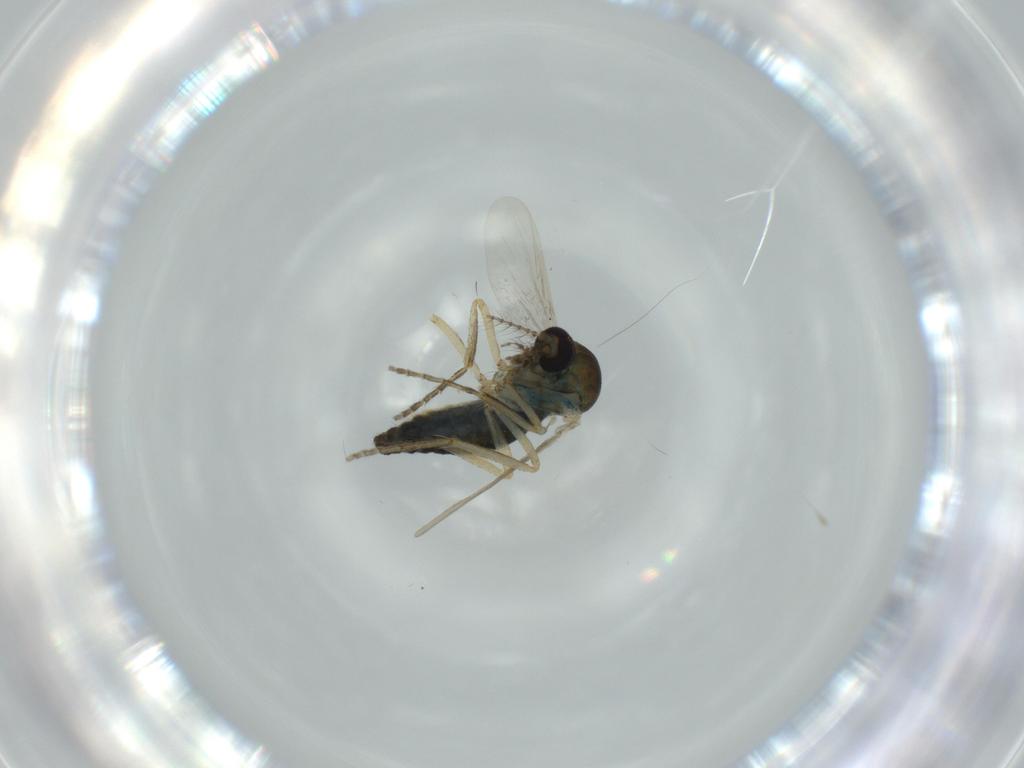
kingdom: Animalia
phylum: Arthropoda
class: Insecta
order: Diptera
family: Ceratopogonidae
